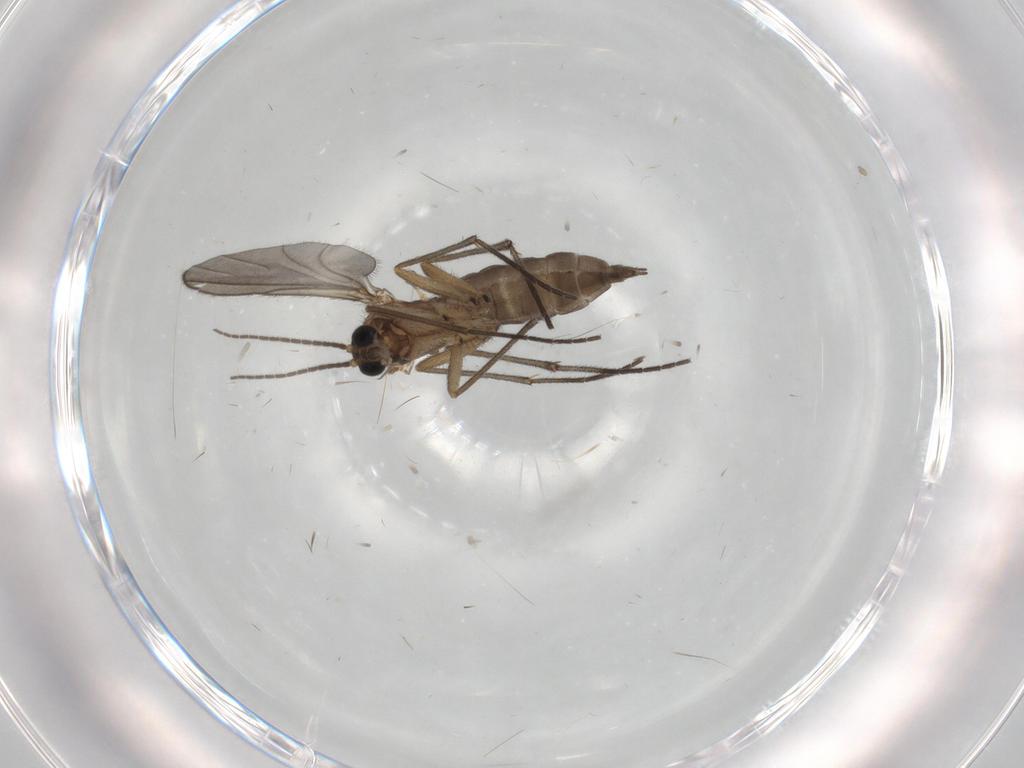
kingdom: Animalia
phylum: Arthropoda
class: Insecta
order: Diptera
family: Sciaridae
